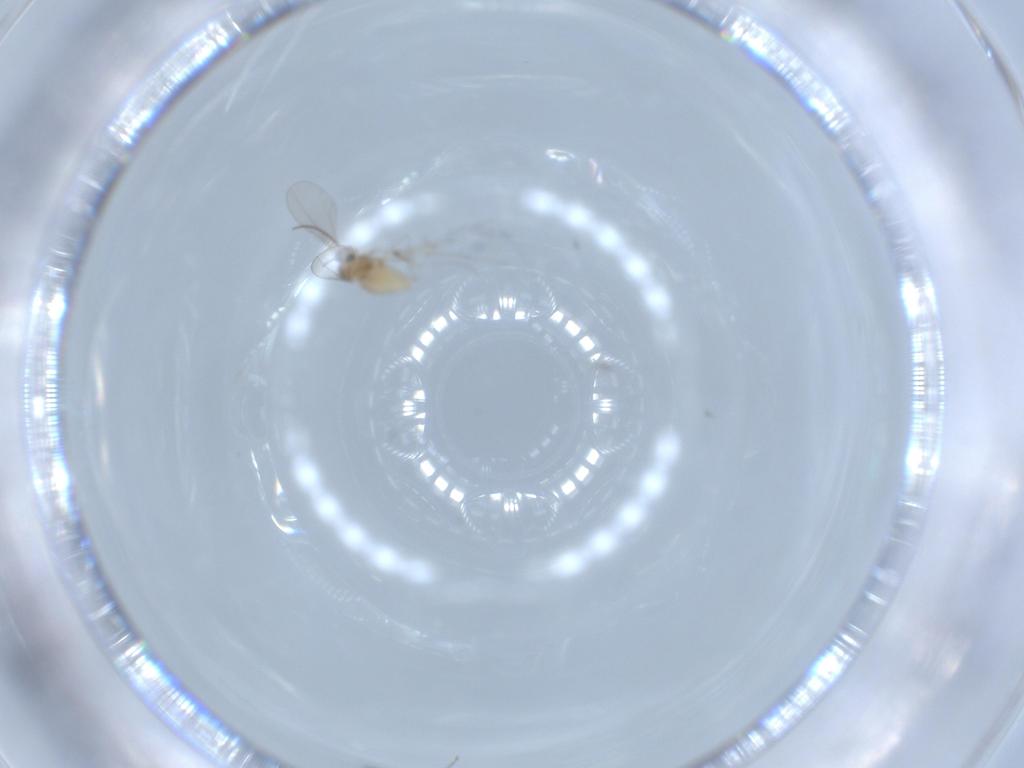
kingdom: Animalia
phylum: Arthropoda
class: Insecta
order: Diptera
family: Cecidomyiidae
